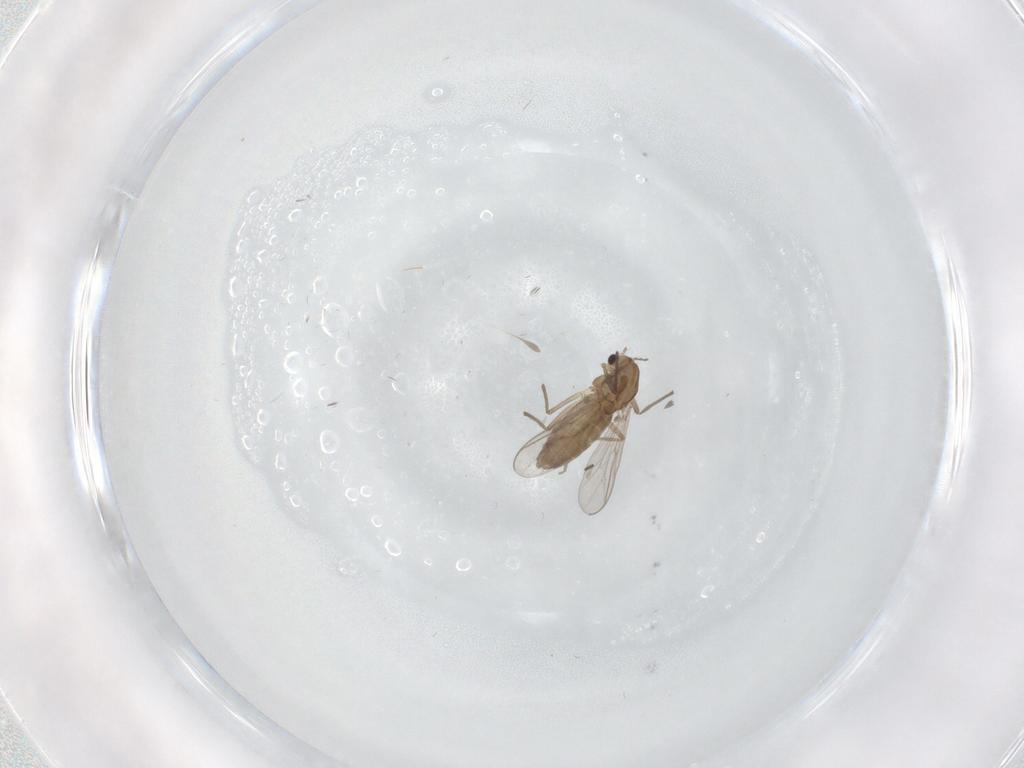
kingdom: Animalia
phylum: Arthropoda
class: Insecta
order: Diptera
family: Chironomidae
